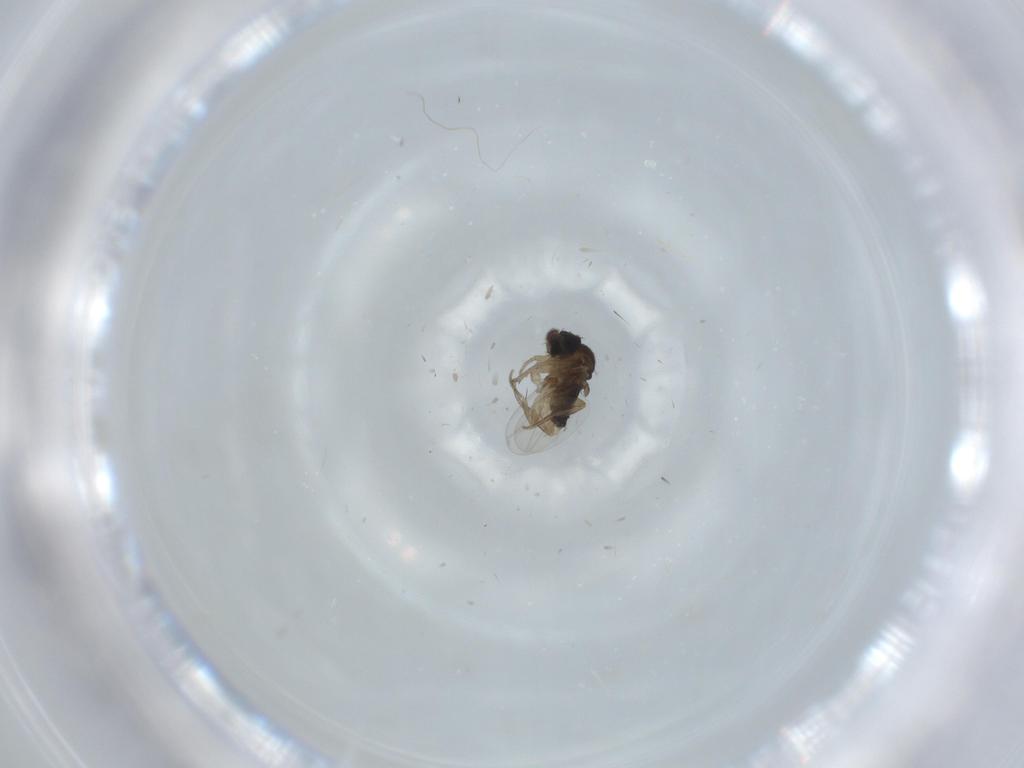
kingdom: Animalia
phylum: Arthropoda
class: Insecta
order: Diptera
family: Phoridae
